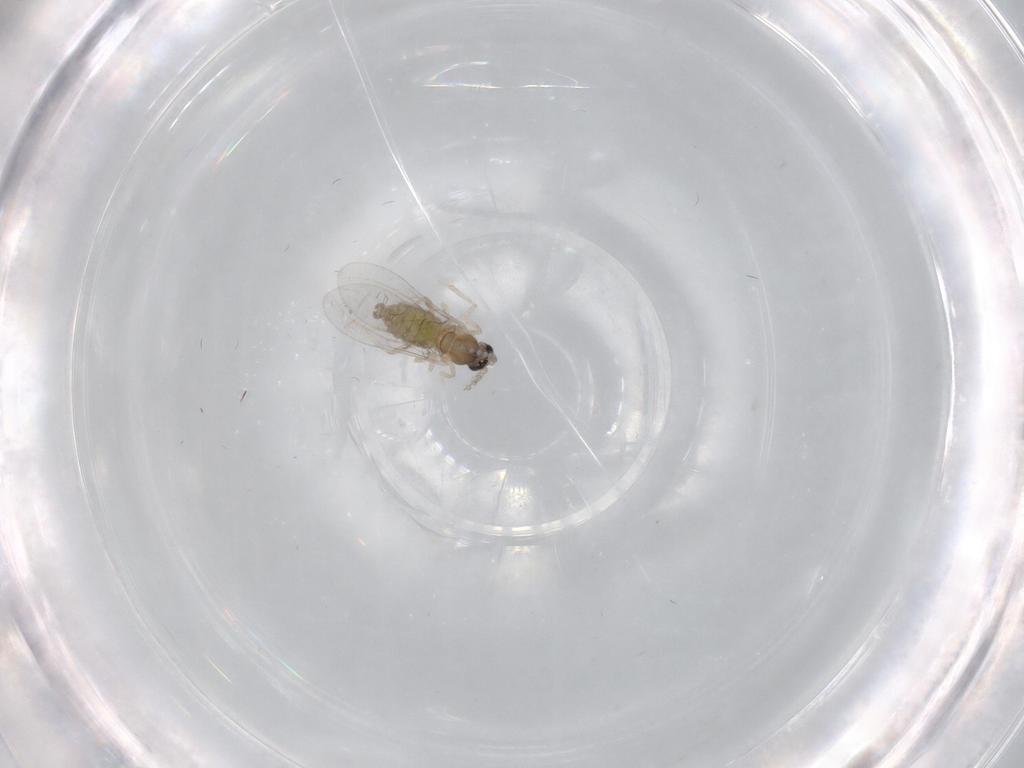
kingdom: Animalia
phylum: Arthropoda
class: Insecta
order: Diptera
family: Cecidomyiidae
